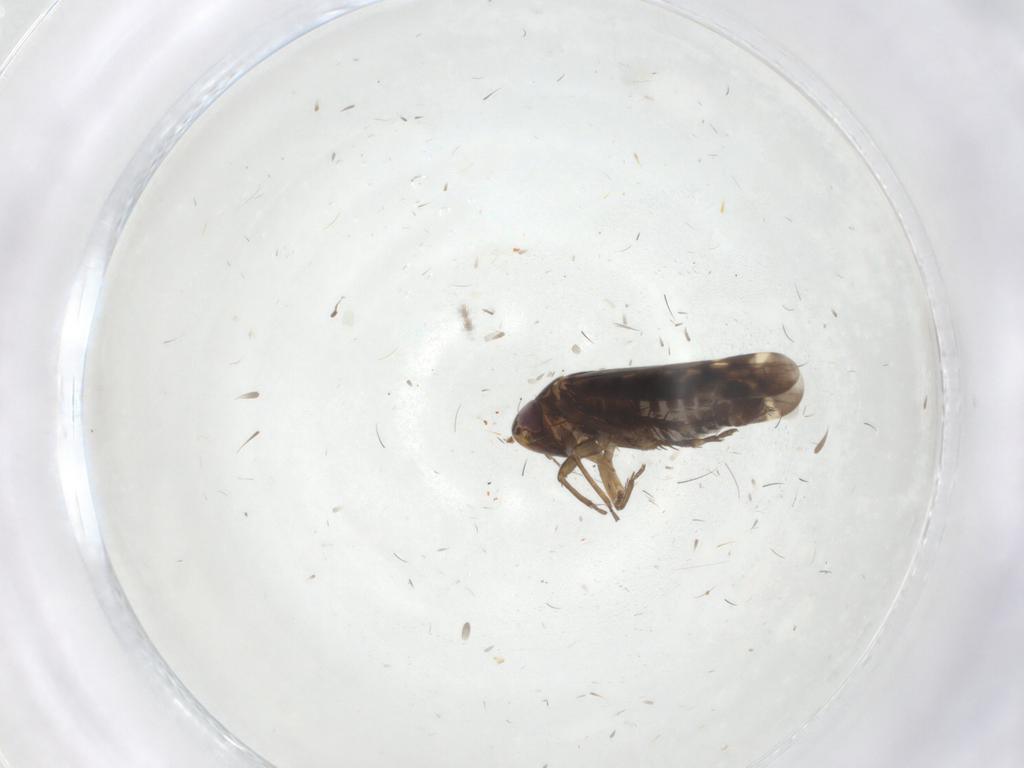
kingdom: Animalia
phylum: Arthropoda
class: Insecta
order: Hemiptera
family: Cicadellidae
